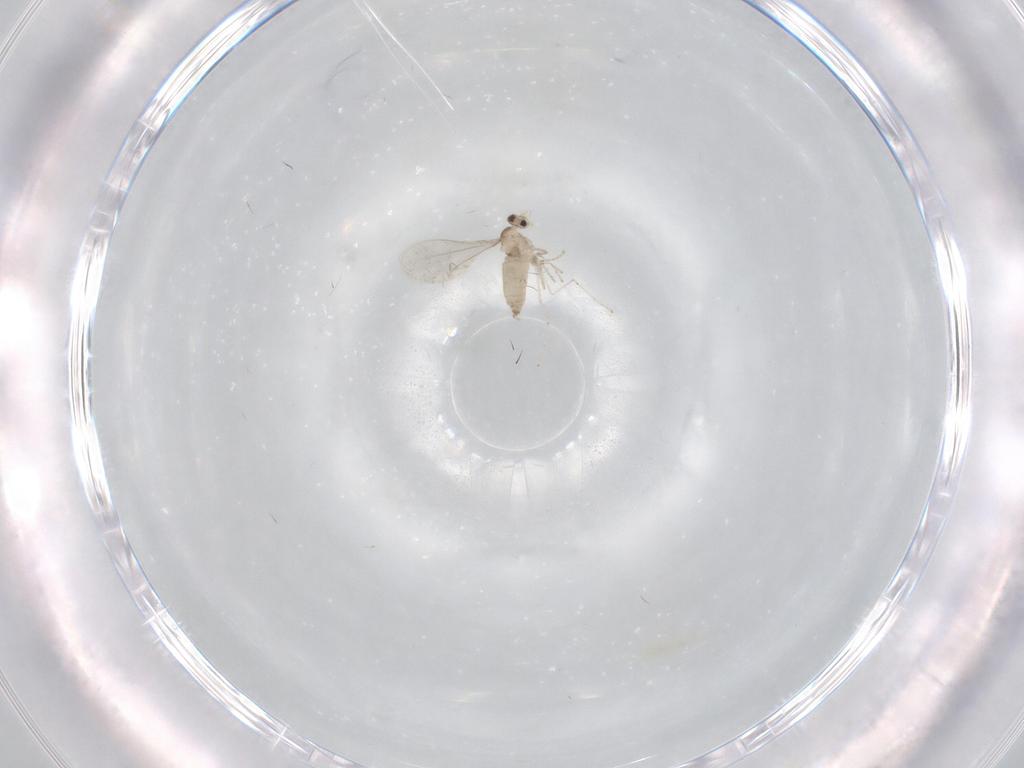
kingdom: Animalia
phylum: Arthropoda
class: Insecta
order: Diptera
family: Cecidomyiidae
